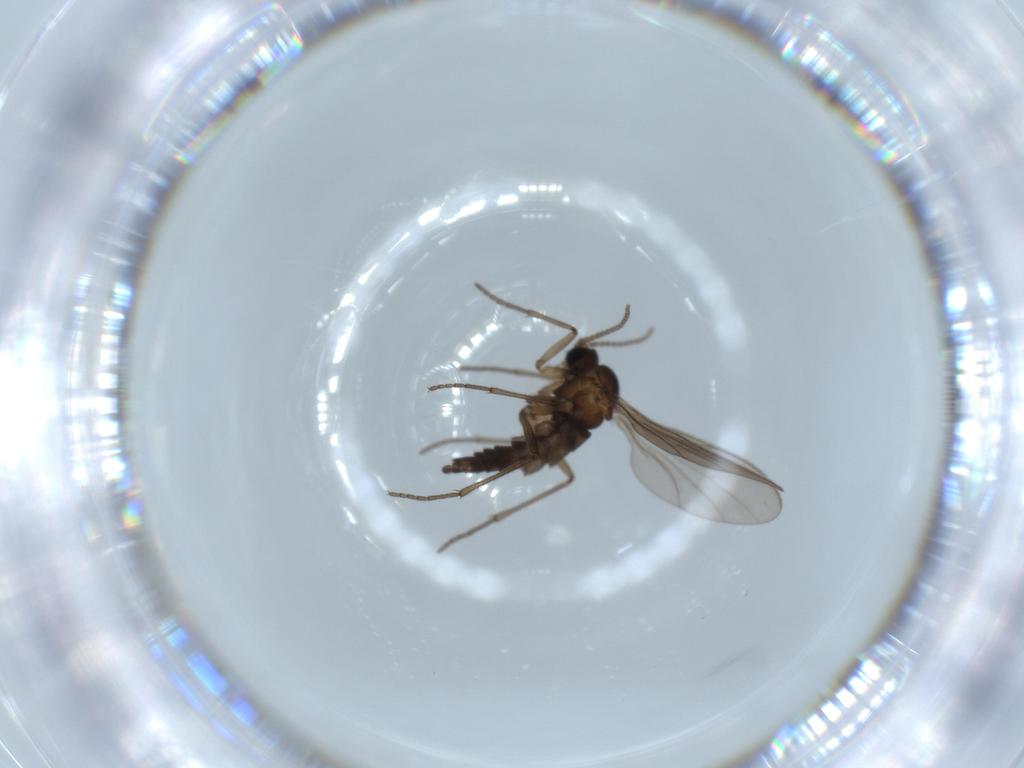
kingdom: Animalia
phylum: Arthropoda
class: Insecta
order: Diptera
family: Sciaridae
